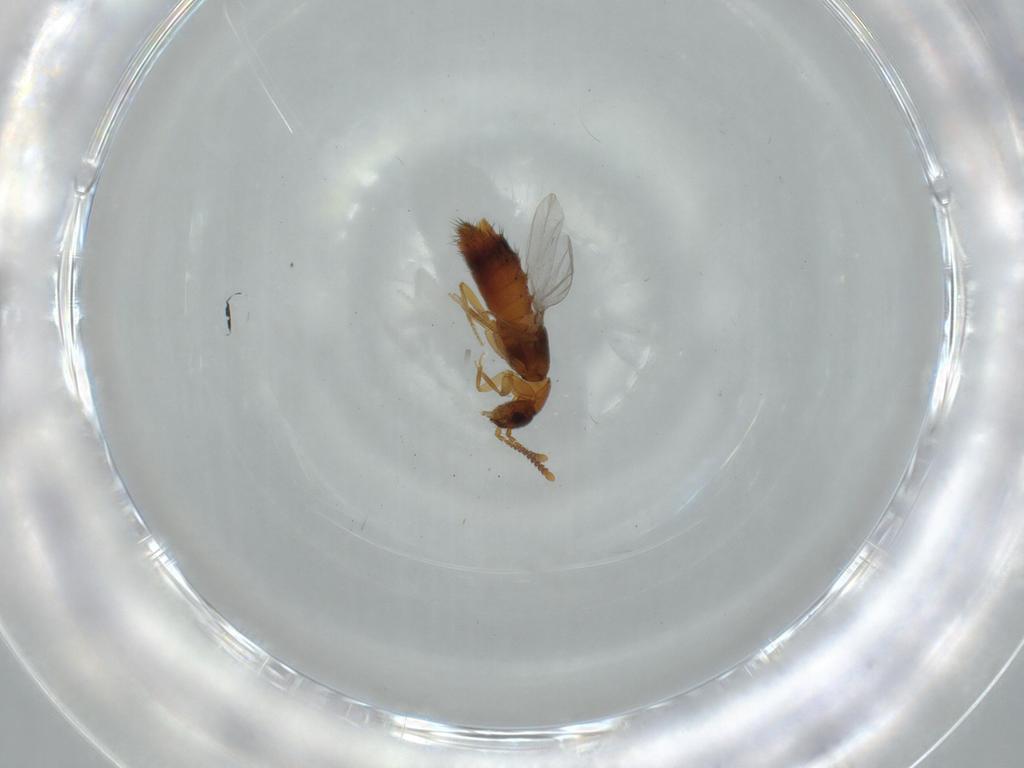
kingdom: Animalia
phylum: Arthropoda
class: Insecta
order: Coleoptera
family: Staphylinidae
